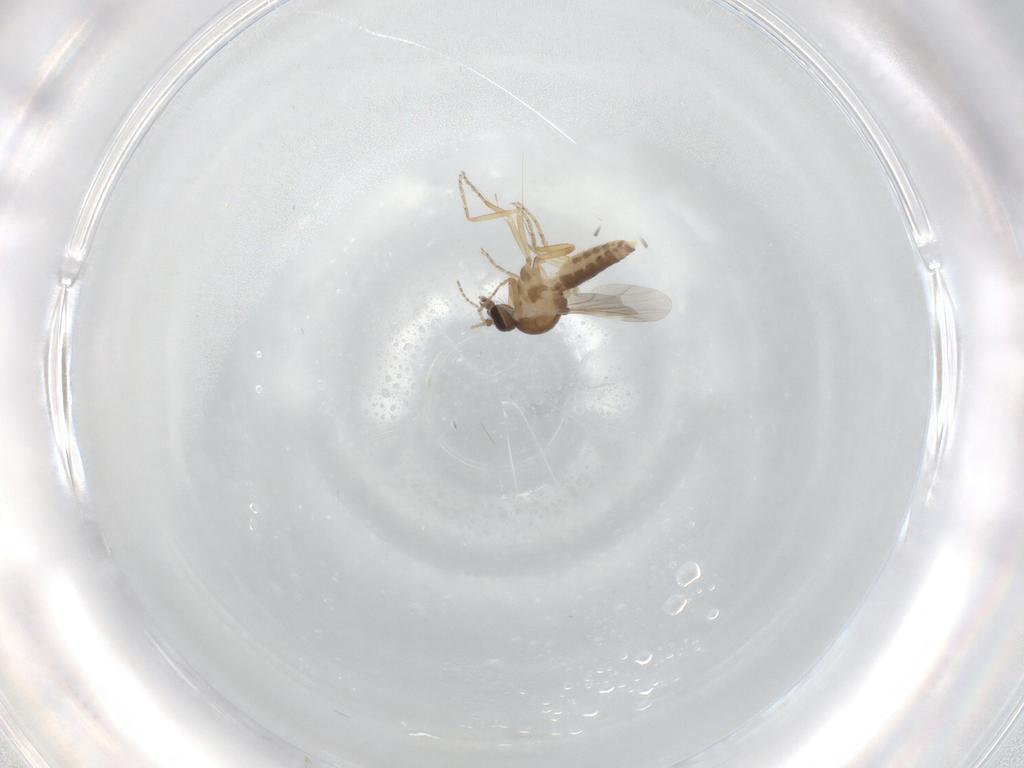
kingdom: Animalia
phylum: Arthropoda
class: Insecta
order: Diptera
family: Ceratopogonidae
